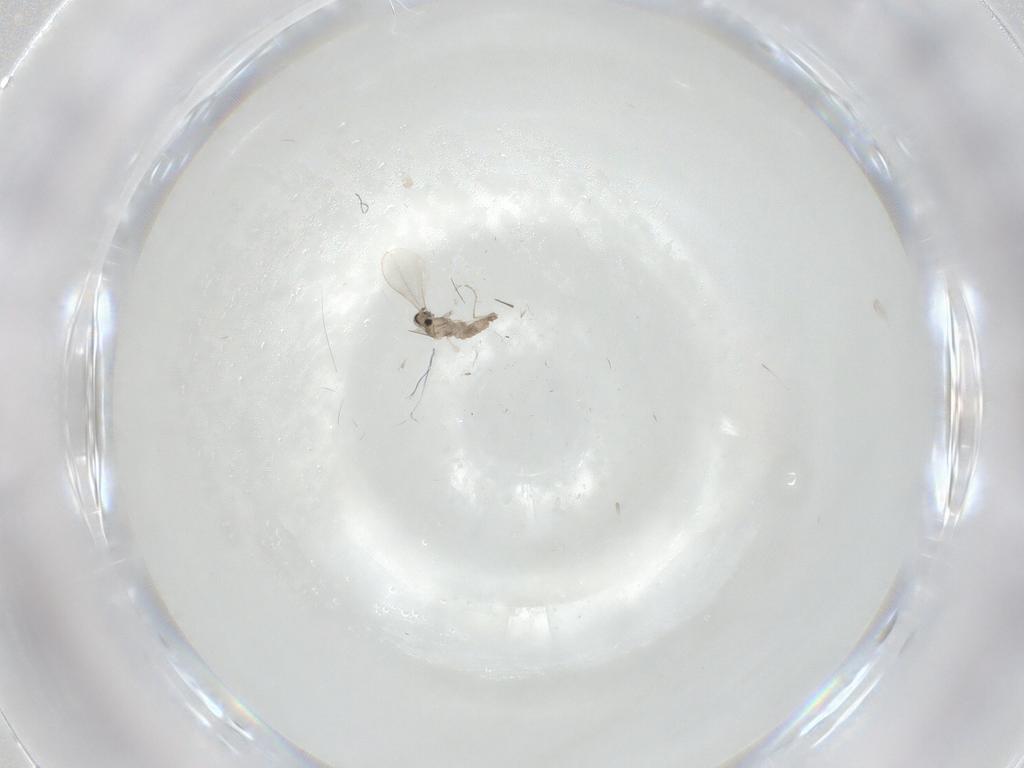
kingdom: Animalia
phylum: Arthropoda
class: Insecta
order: Diptera
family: Cecidomyiidae
